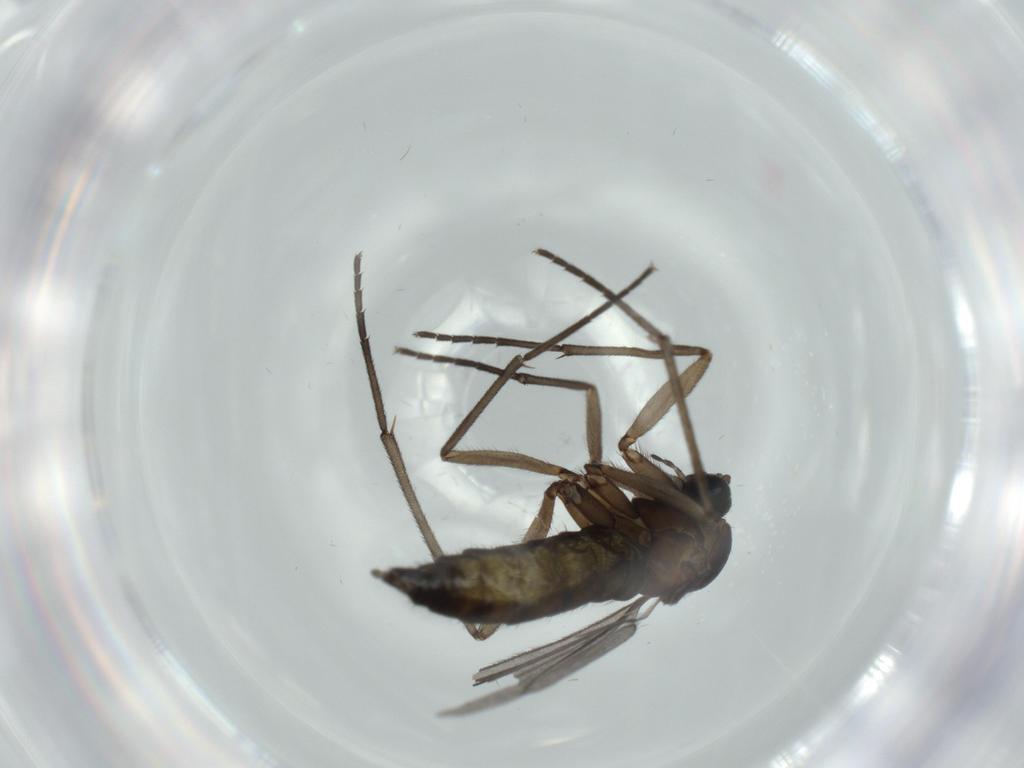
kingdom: Animalia
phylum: Arthropoda
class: Insecta
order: Diptera
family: Sciaridae
